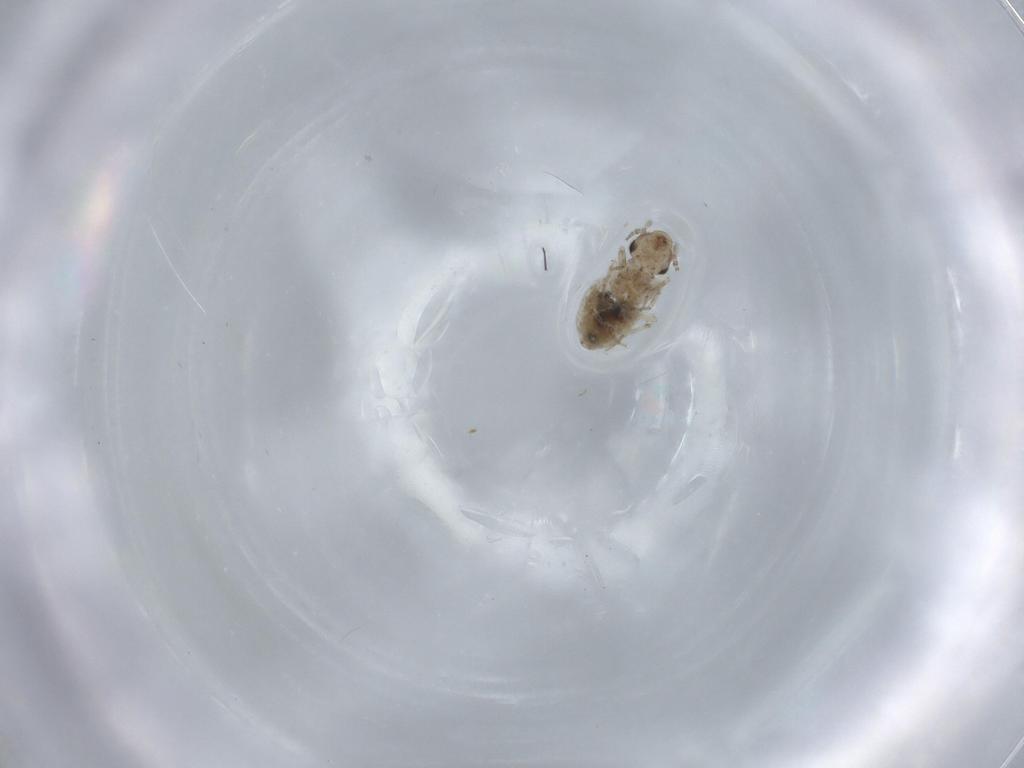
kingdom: Animalia
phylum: Arthropoda
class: Insecta
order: Psocodea
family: Lepidopsocidae
